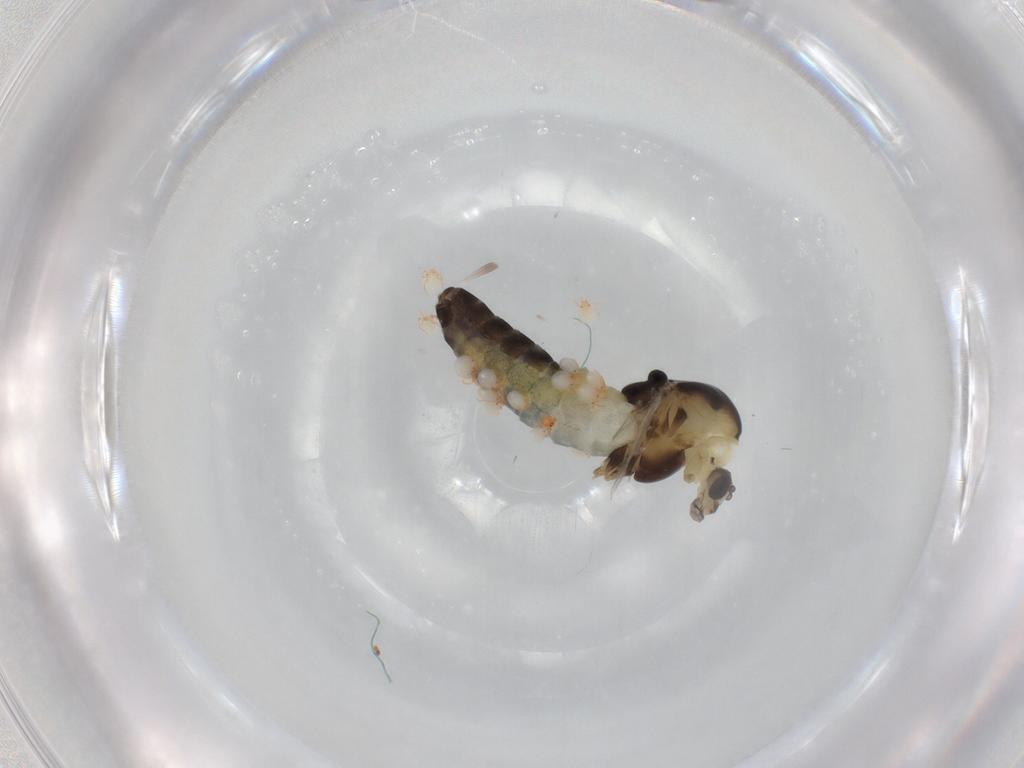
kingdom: Animalia
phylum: Arthropoda
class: Insecta
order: Diptera
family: Chironomidae
